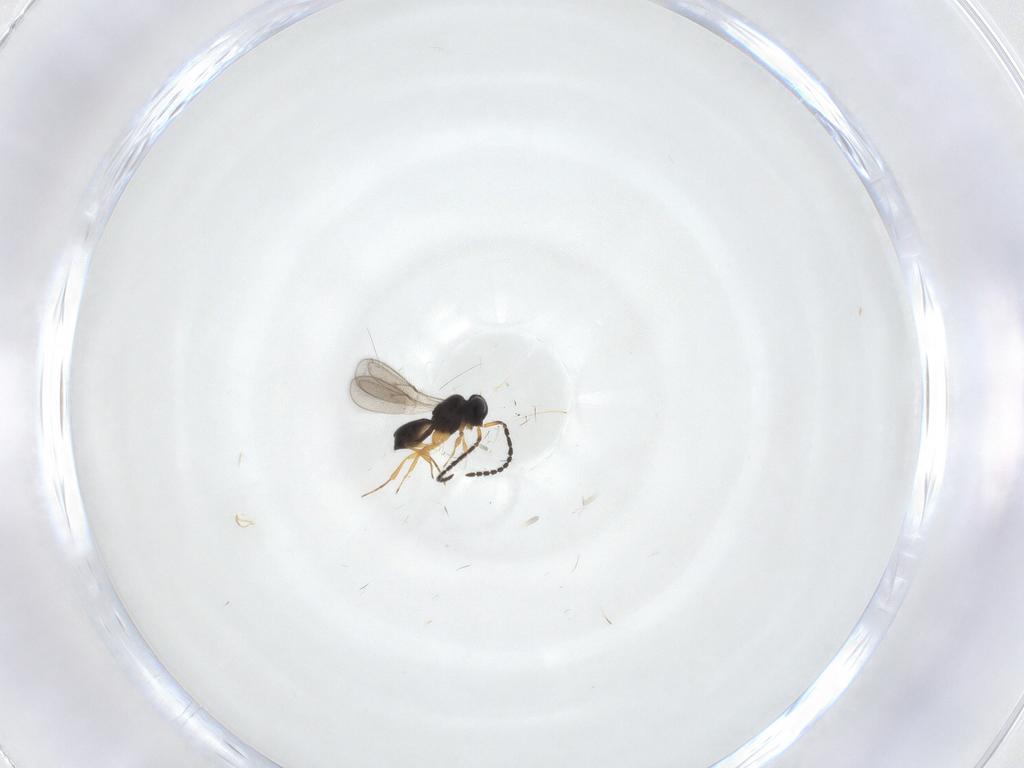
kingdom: Animalia
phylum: Arthropoda
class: Insecta
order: Hymenoptera
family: Scelionidae
